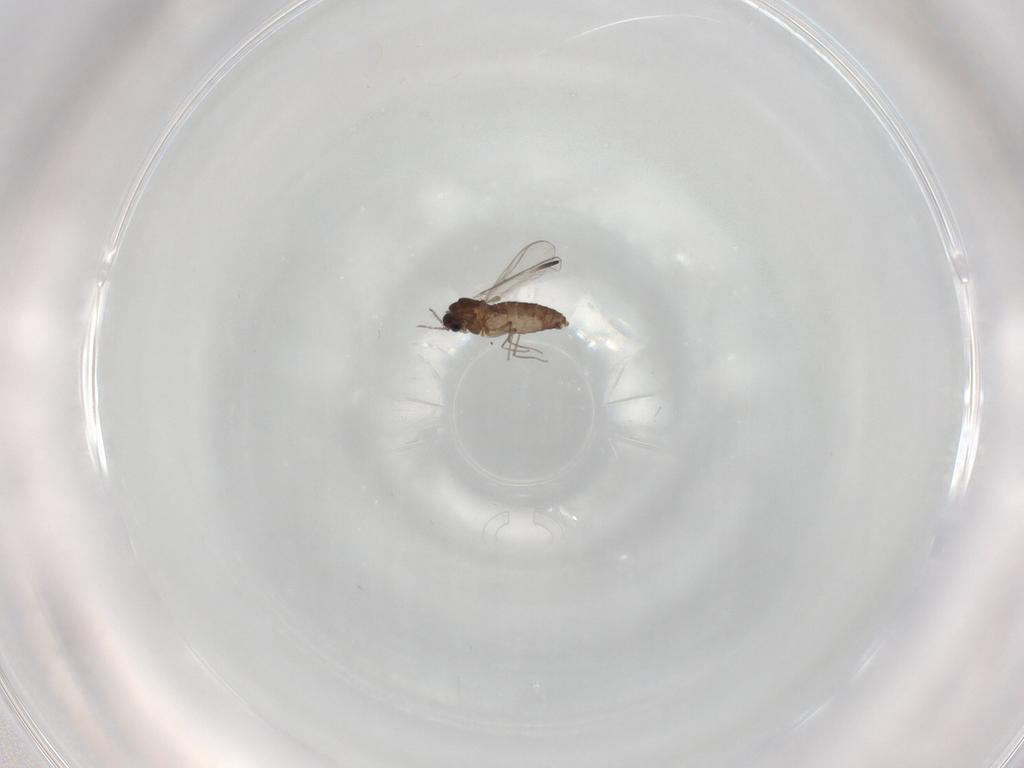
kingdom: Animalia
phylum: Arthropoda
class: Insecta
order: Diptera
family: Chironomidae
